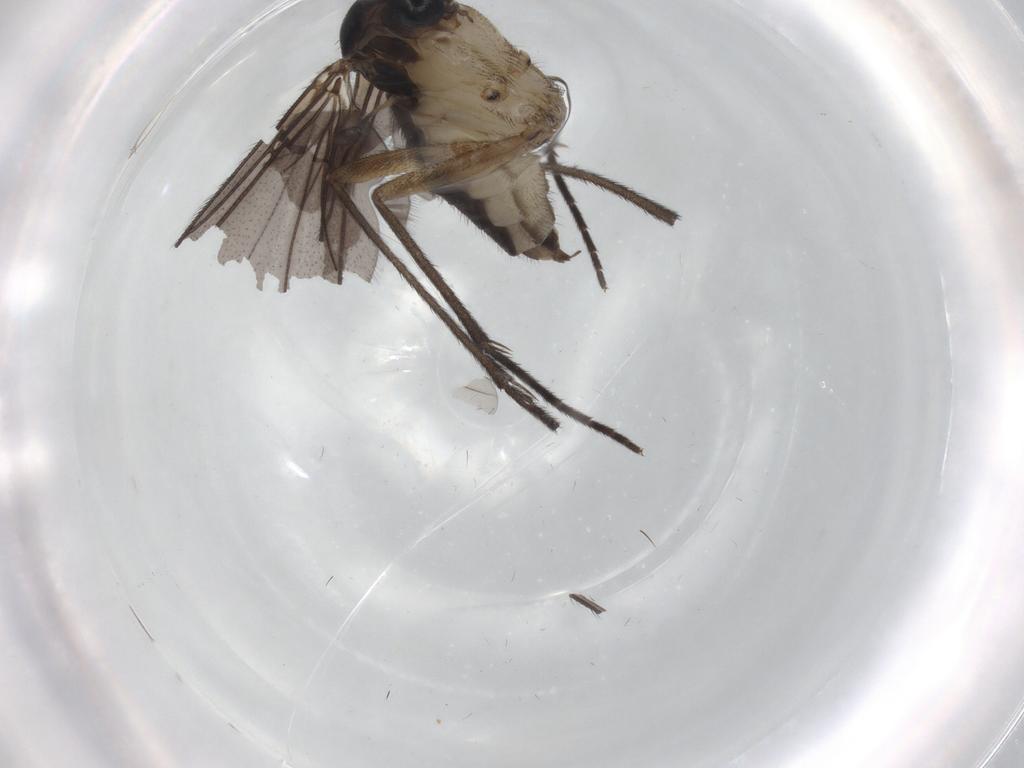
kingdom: Animalia
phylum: Arthropoda
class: Insecta
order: Diptera
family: Sciaridae
